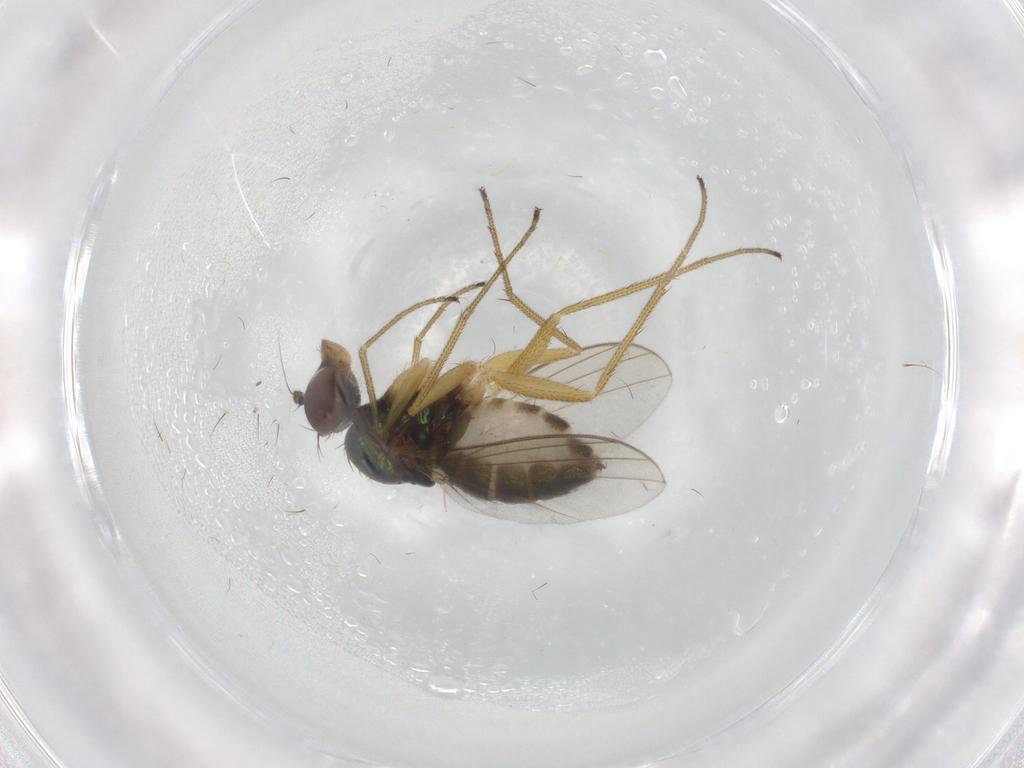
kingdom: Animalia
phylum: Arthropoda
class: Insecta
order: Diptera
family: Dolichopodidae
